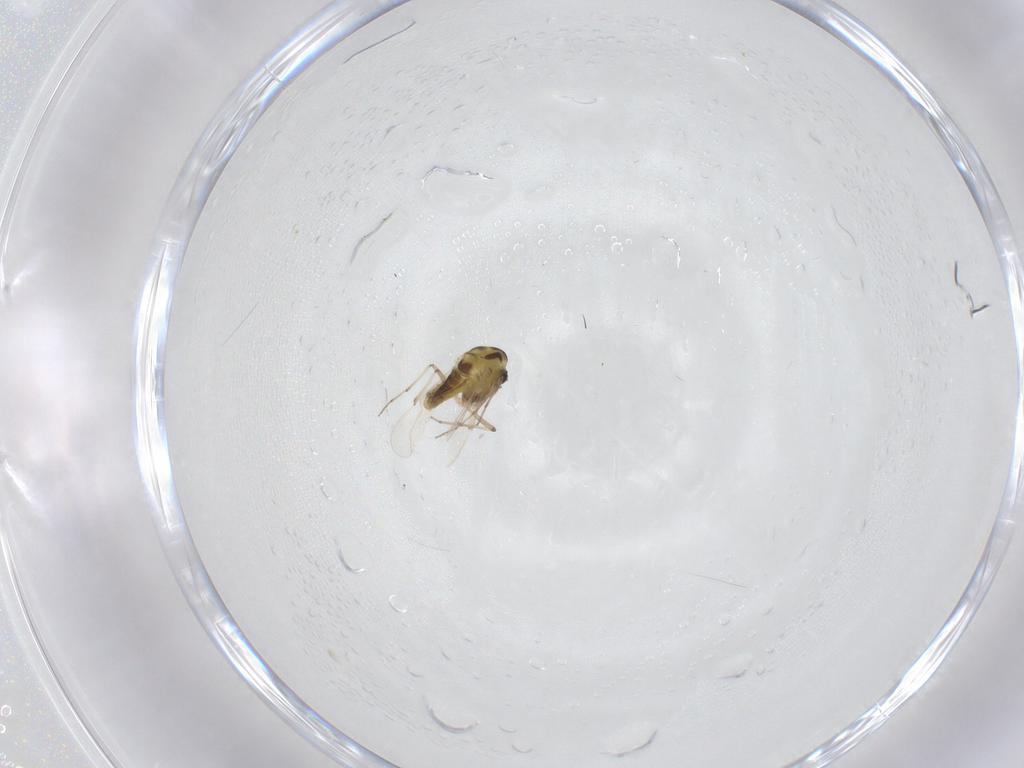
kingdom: Animalia
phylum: Arthropoda
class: Insecta
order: Diptera
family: Chironomidae
